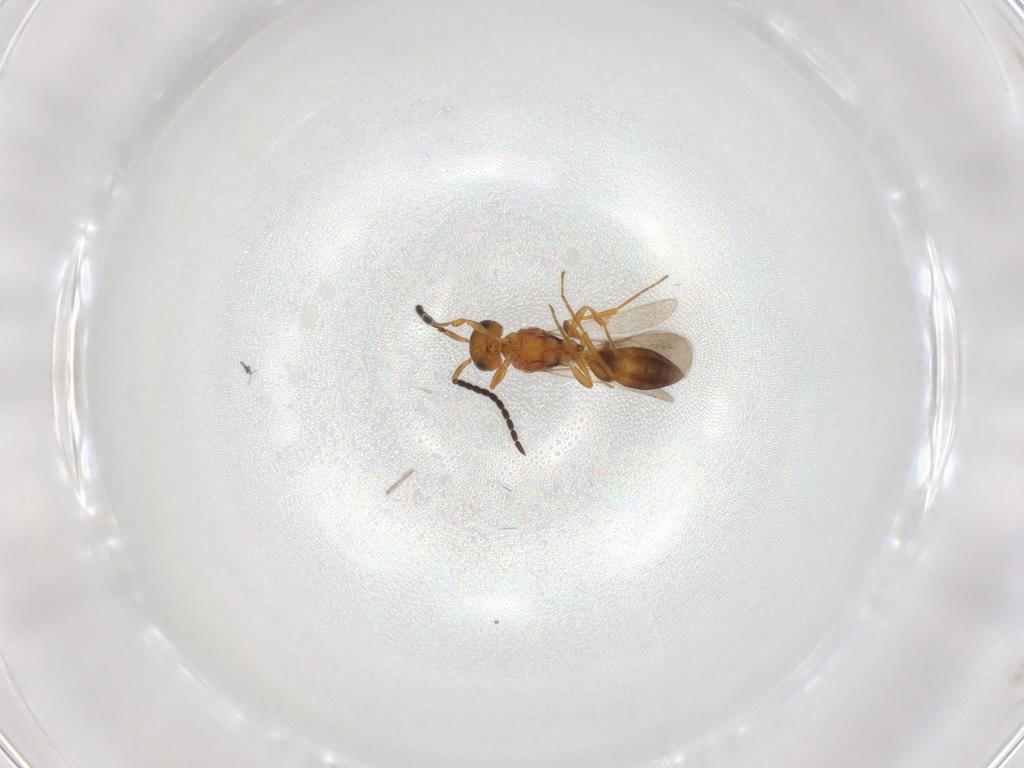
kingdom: Animalia
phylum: Arthropoda
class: Insecta
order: Hymenoptera
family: Scelionidae
